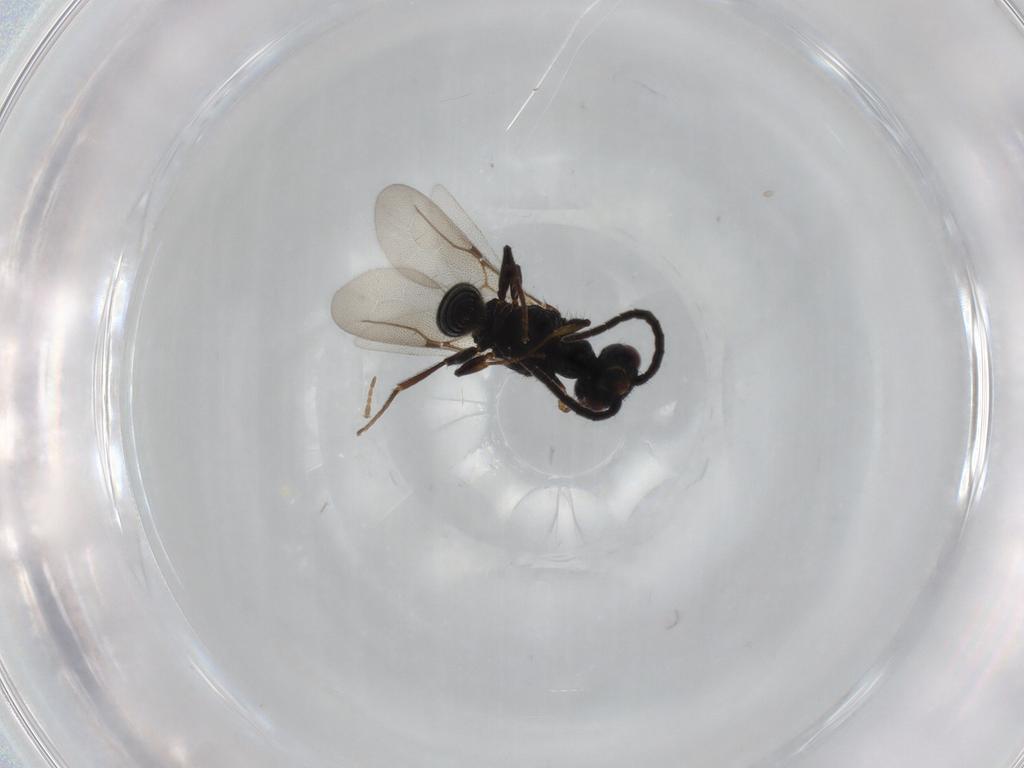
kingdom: Animalia
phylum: Arthropoda
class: Insecta
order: Hymenoptera
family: Bethylidae
